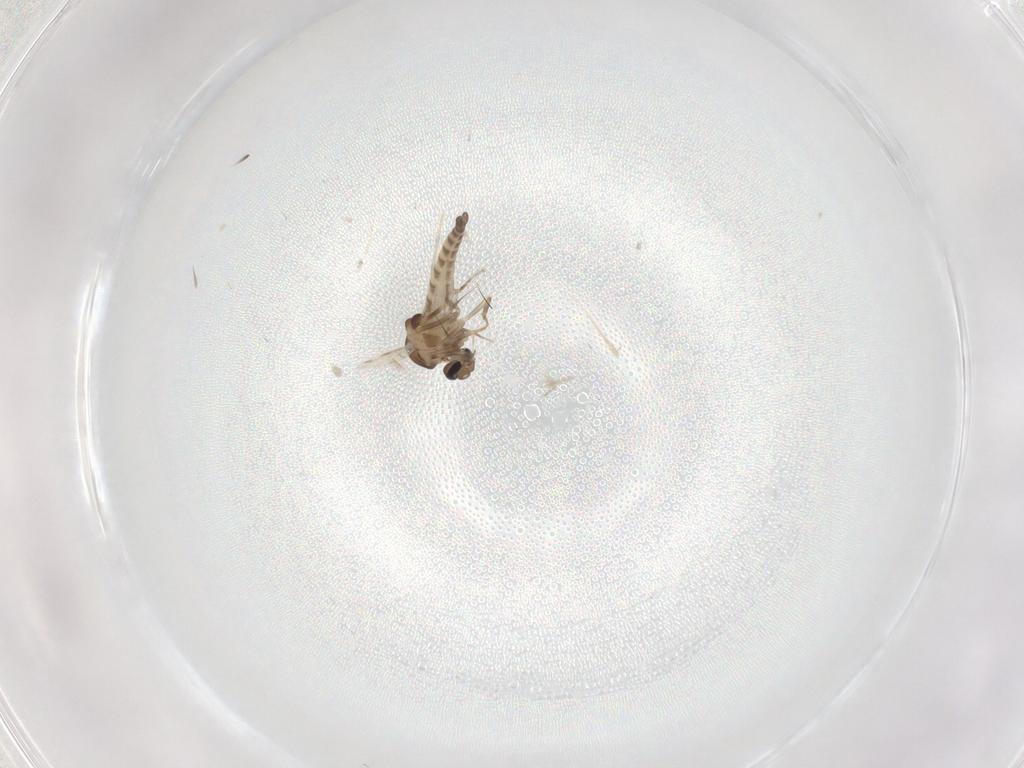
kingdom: Animalia
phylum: Arthropoda
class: Insecta
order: Diptera
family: Ceratopogonidae
